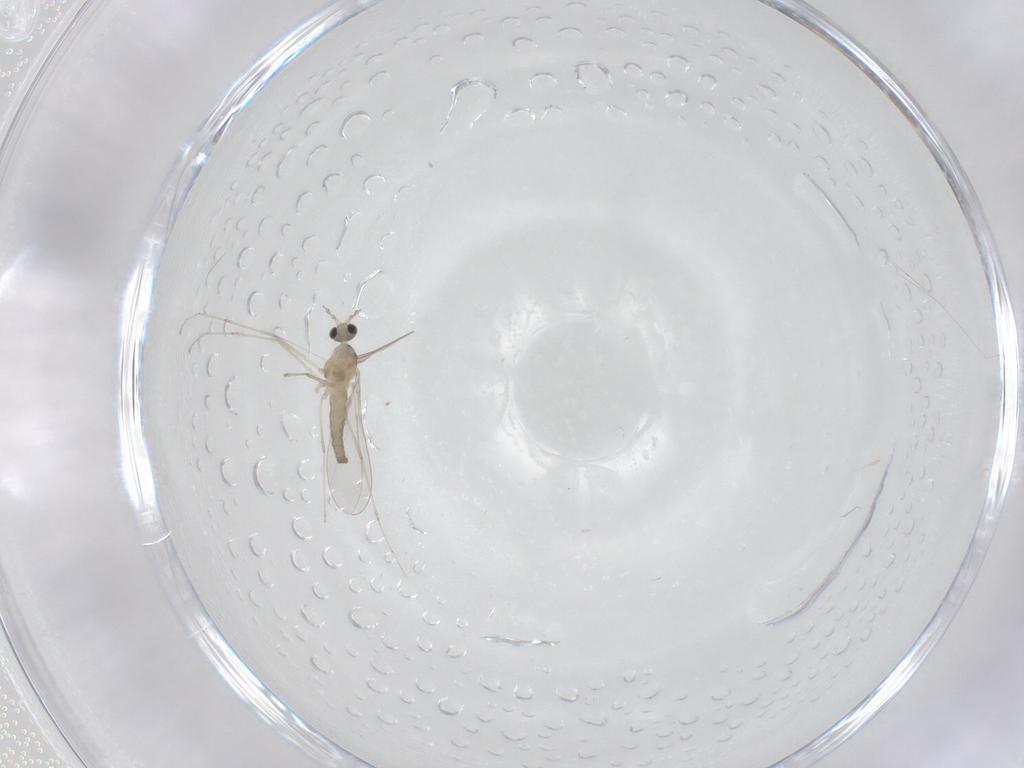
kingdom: Animalia
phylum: Arthropoda
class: Insecta
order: Diptera
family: Cecidomyiidae
